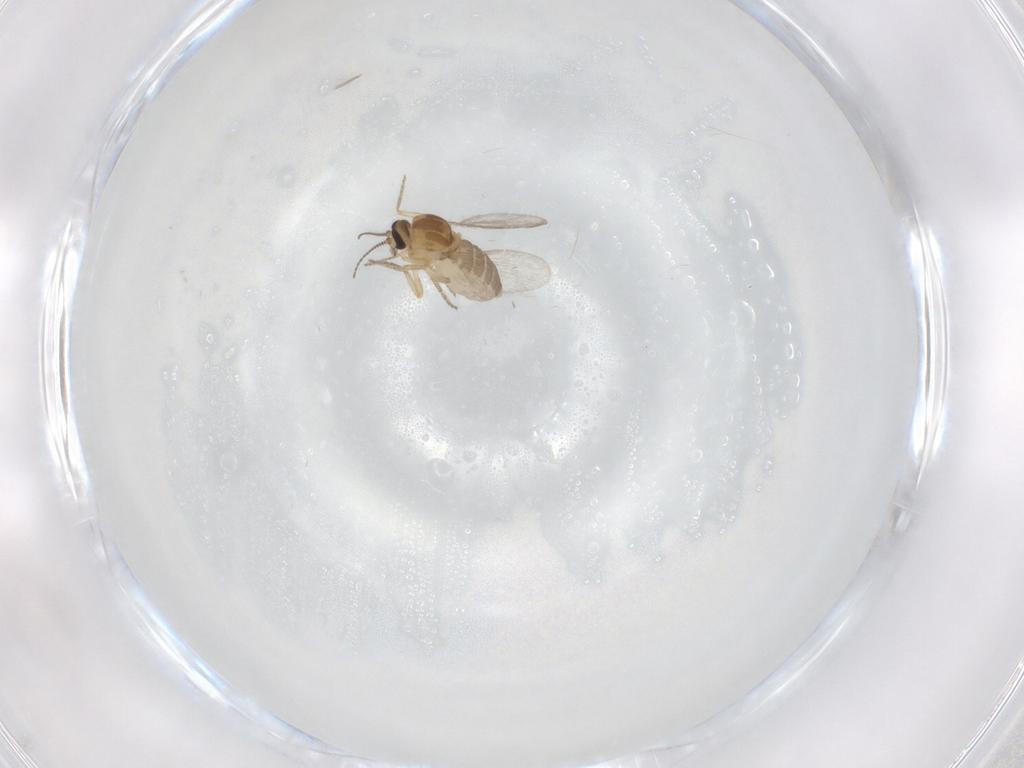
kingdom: Animalia
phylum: Arthropoda
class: Insecta
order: Diptera
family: Ceratopogonidae
